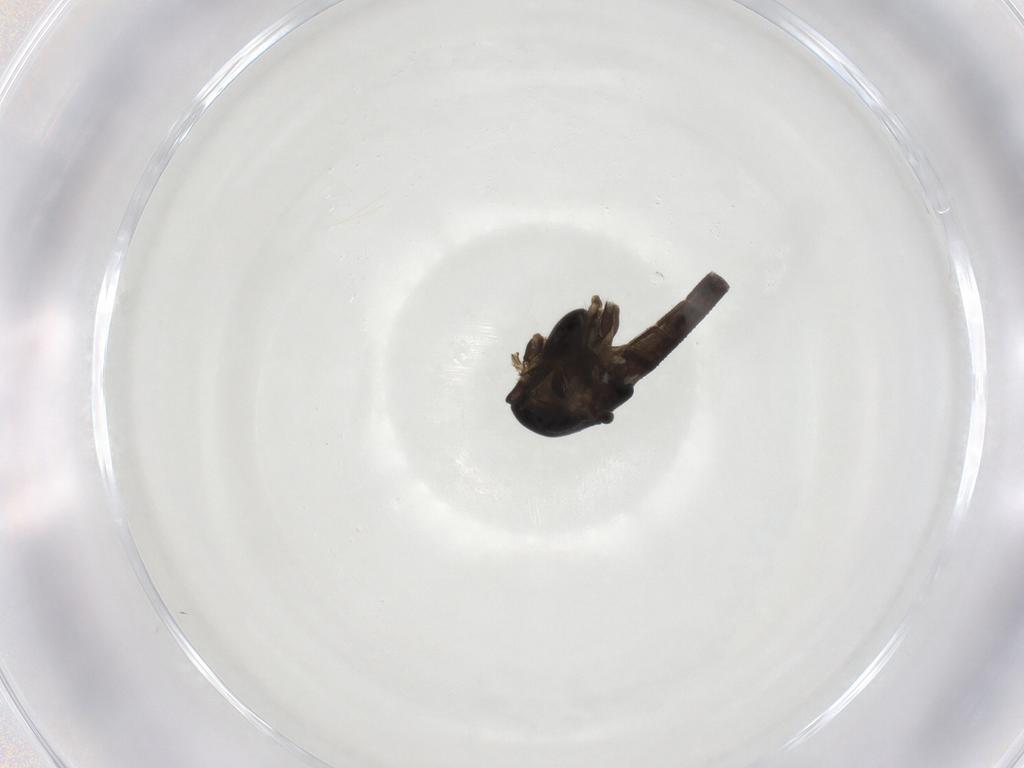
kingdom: Animalia
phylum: Arthropoda
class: Insecta
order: Diptera
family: Chironomidae
